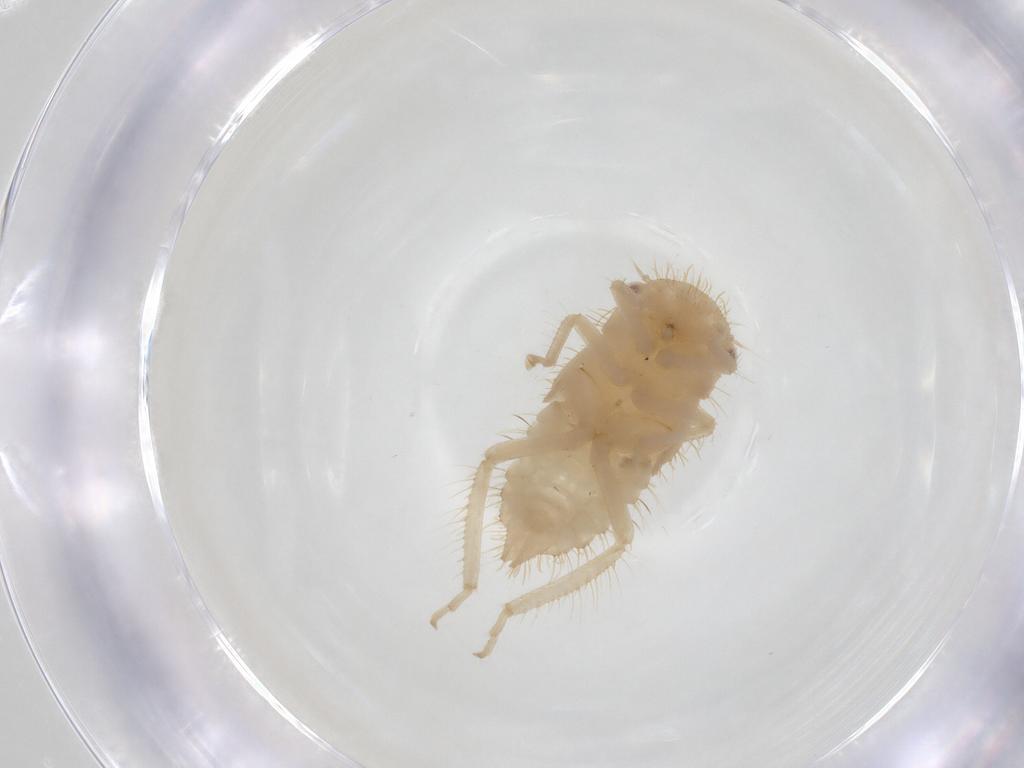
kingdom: Animalia
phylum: Arthropoda
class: Insecta
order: Hemiptera
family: Cicadellidae
